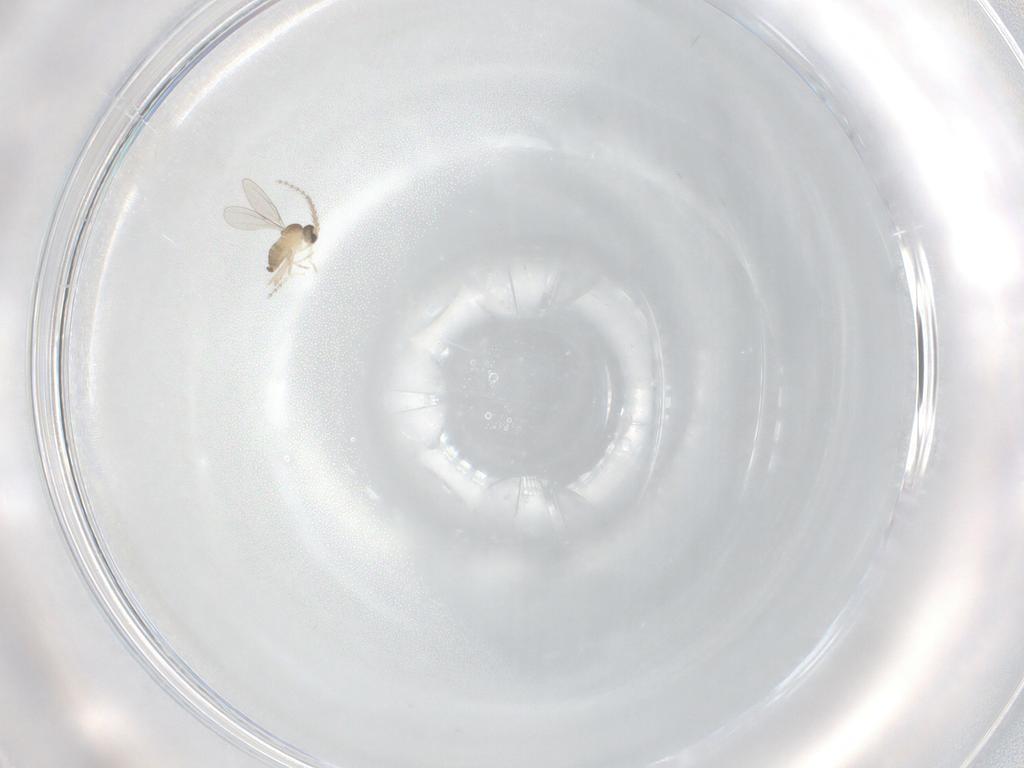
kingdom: Animalia
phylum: Arthropoda
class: Insecta
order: Diptera
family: Cecidomyiidae
